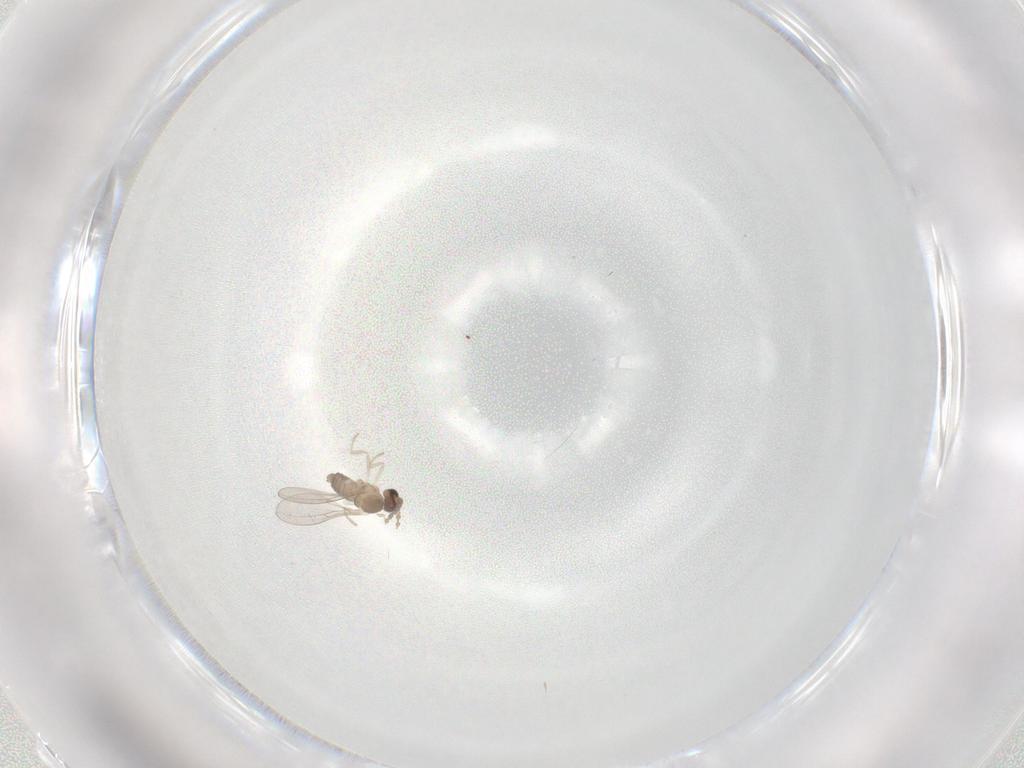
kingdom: Animalia
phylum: Arthropoda
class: Insecta
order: Diptera
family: Cecidomyiidae
